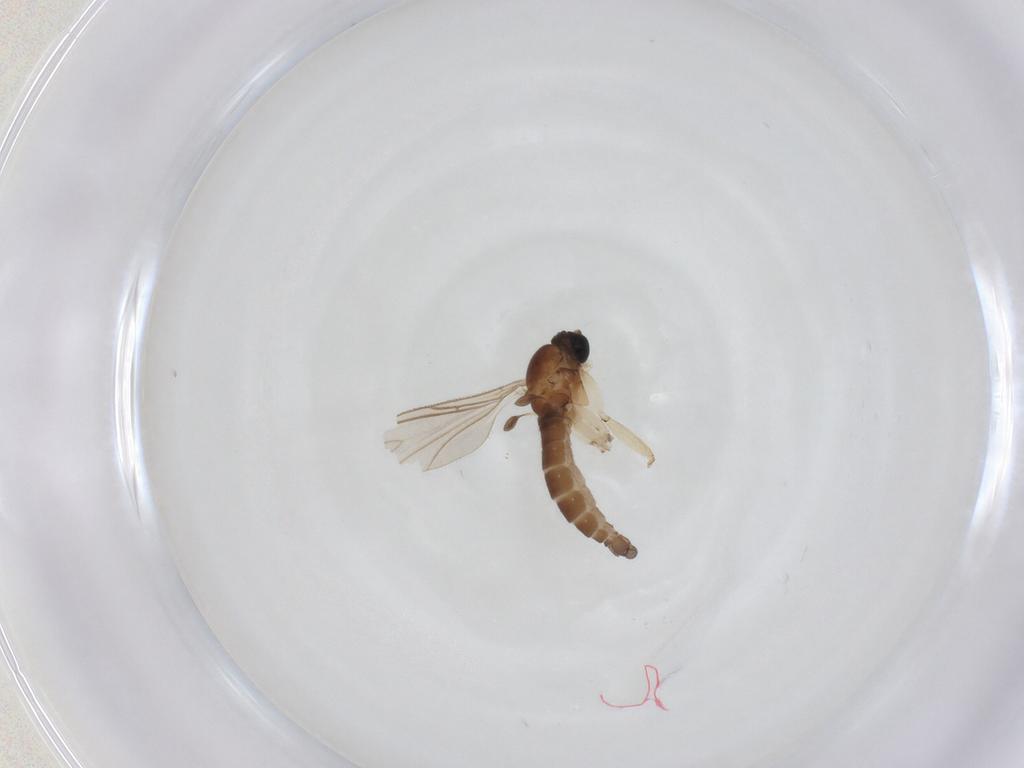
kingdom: Animalia
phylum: Arthropoda
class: Insecta
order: Diptera
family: Sciaridae
